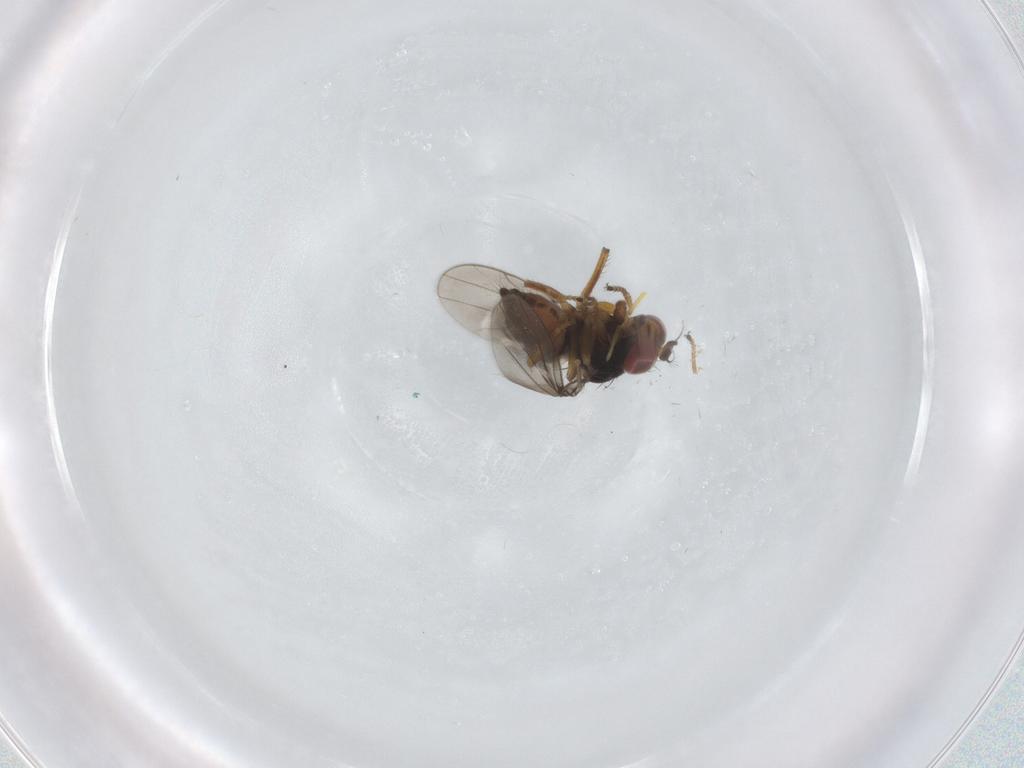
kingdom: Animalia
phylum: Arthropoda
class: Insecta
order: Diptera
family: Ephydridae
